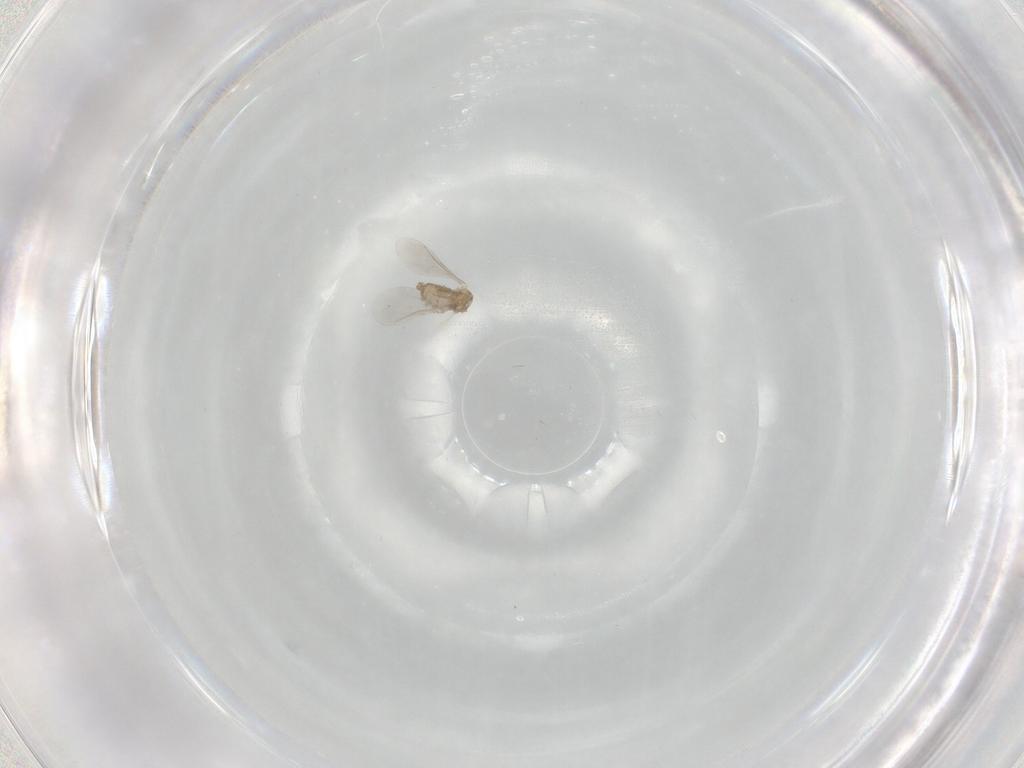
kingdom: Animalia
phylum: Arthropoda
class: Insecta
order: Diptera
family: Cecidomyiidae
